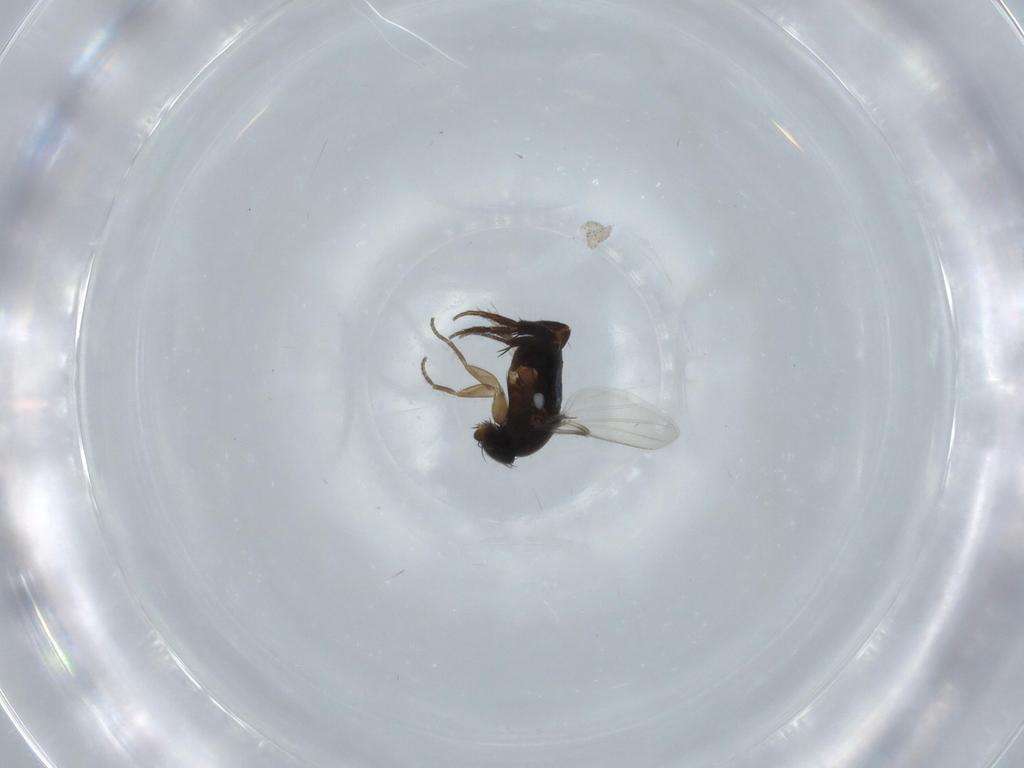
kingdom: Animalia
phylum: Arthropoda
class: Insecta
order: Diptera
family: Phoridae
